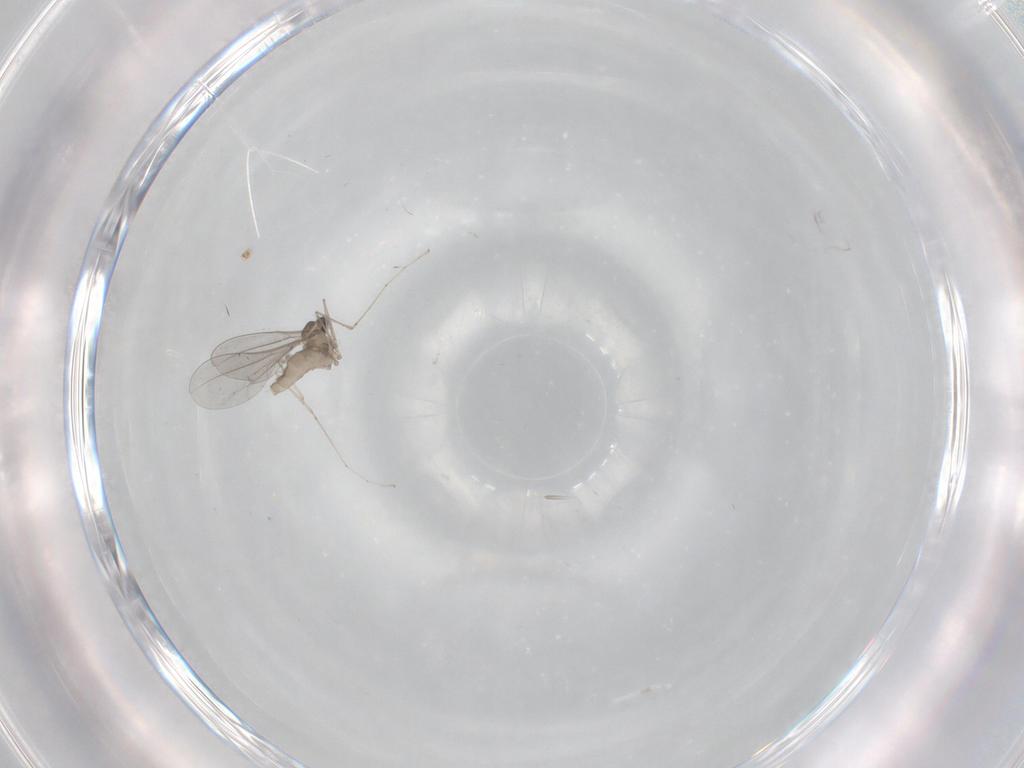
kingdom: Animalia
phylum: Arthropoda
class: Insecta
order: Diptera
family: Cecidomyiidae
